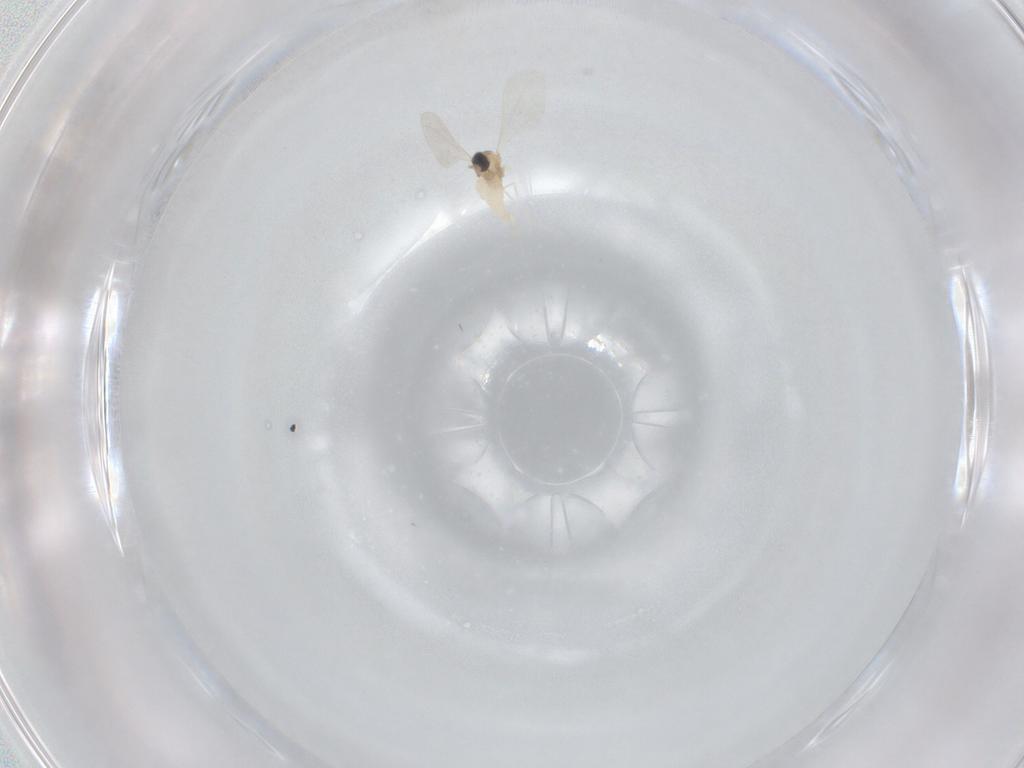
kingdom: Animalia
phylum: Arthropoda
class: Insecta
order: Diptera
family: Cecidomyiidae
